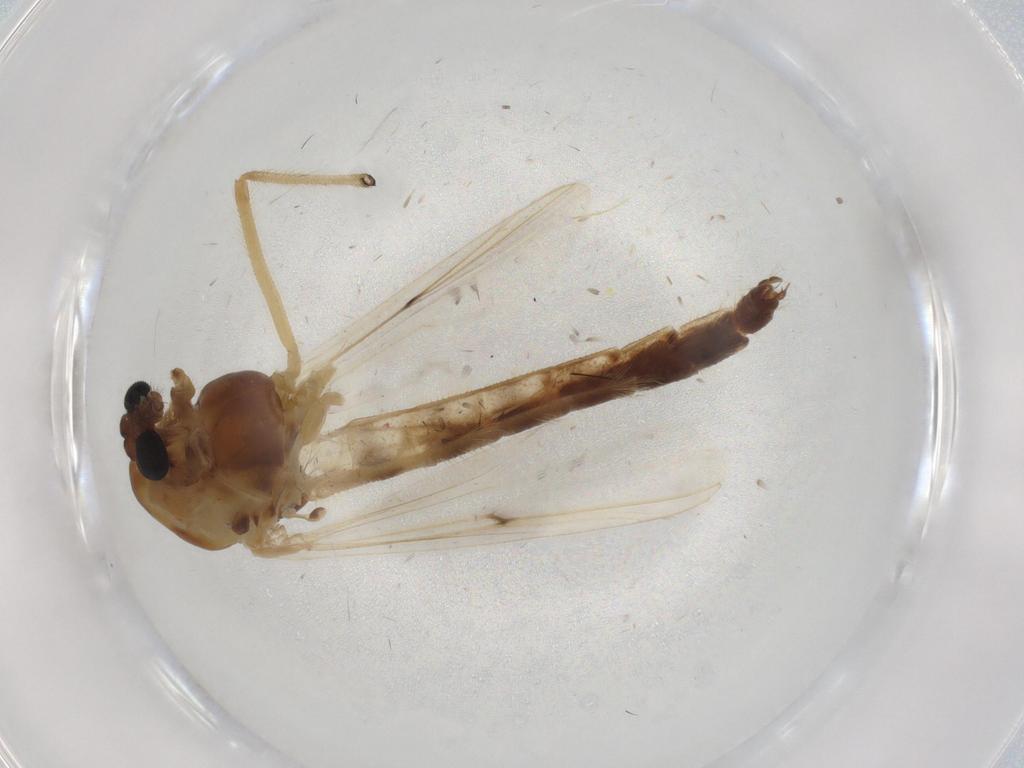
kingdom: Animalia
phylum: Arthropoda
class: Insecta
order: Diptera
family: Chironomidae
